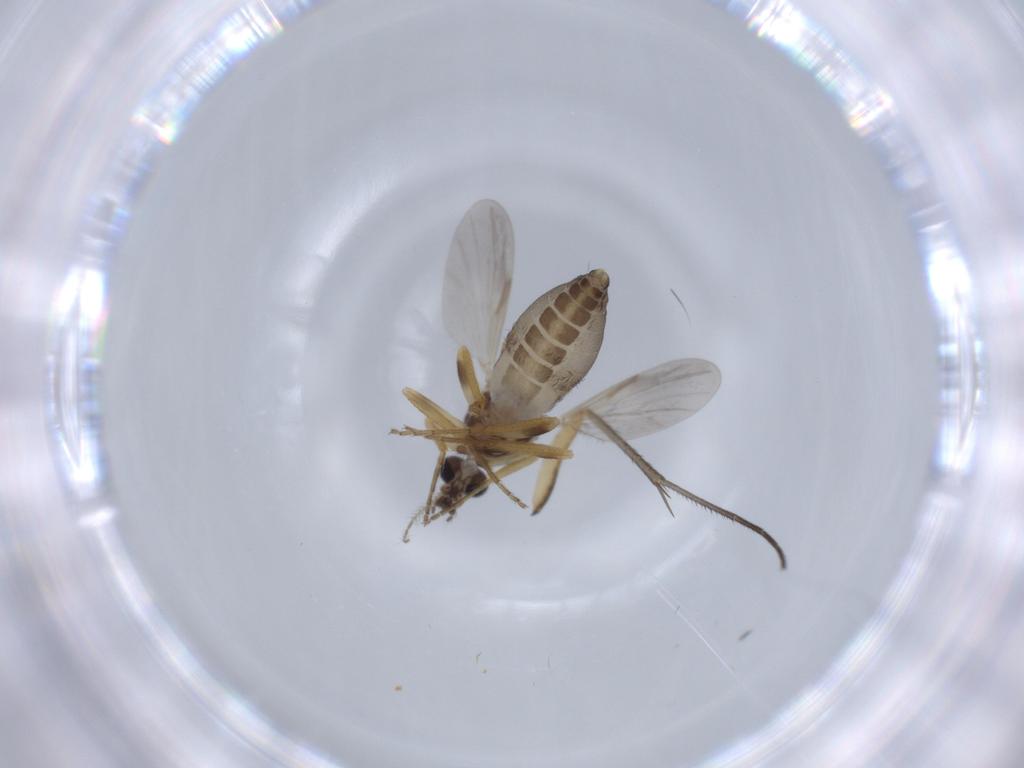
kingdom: Animalia
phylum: Arthropoda
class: Insecta
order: Diptera
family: Ceratopogonidae
